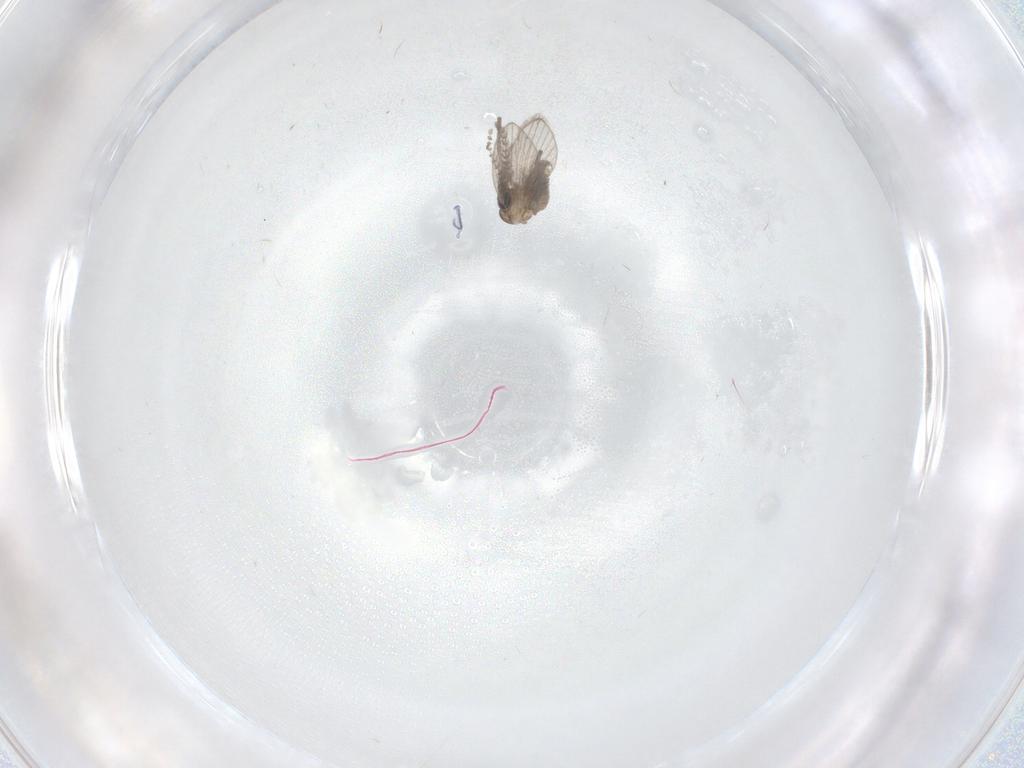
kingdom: Animalia
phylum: Arthropoda
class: Insecta
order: Diptera
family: Psychodidae
